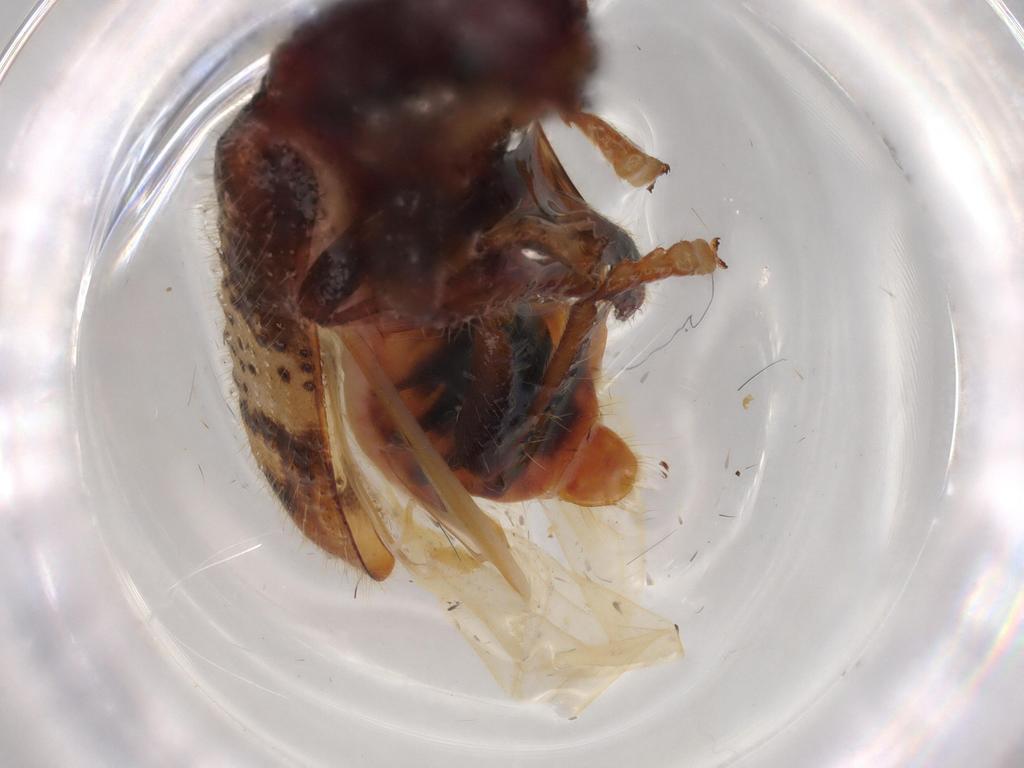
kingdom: Animalia
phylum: Arthropoda
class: Insecta
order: Coleoptera
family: Cleridae
